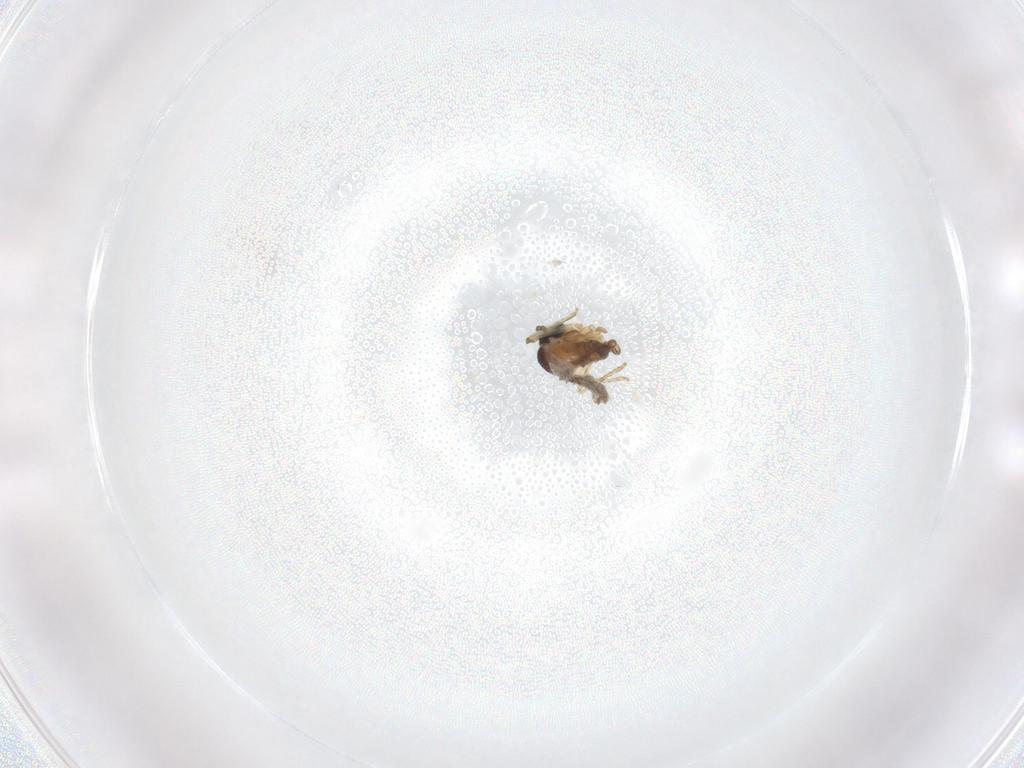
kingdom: Animalia
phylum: Arthropoda
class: Insecta
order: Diptera
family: Cecidomyiidae
